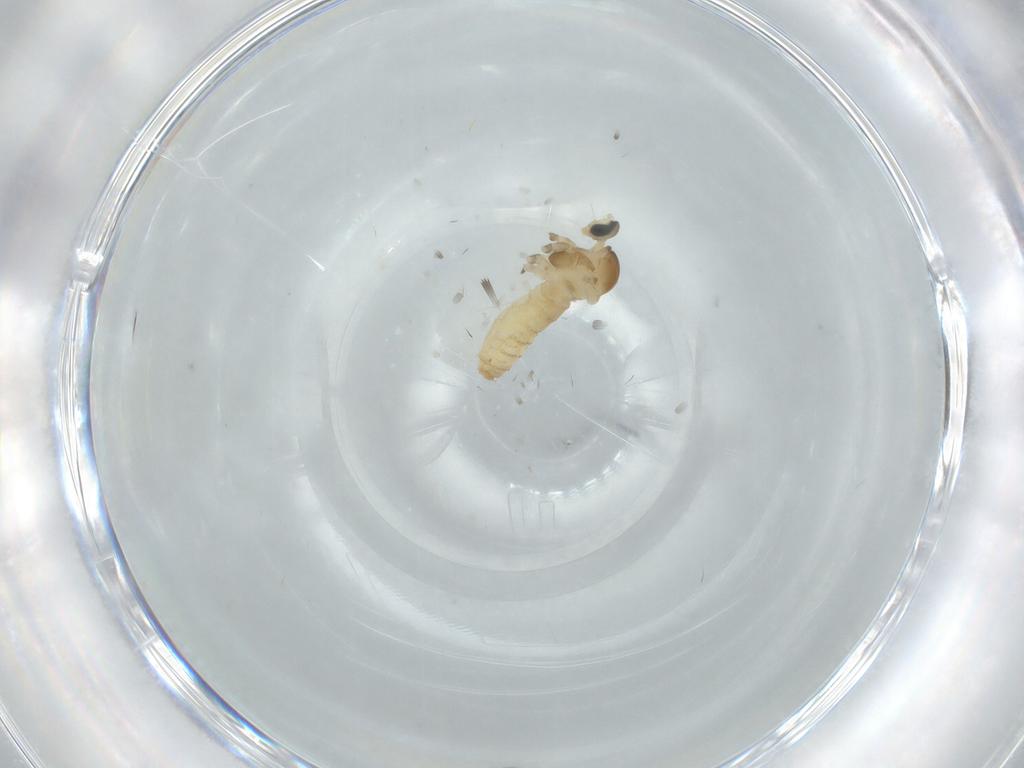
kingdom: Animalia
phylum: Arthropoda
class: Insecta
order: Diptera
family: Cecidomyiidae
